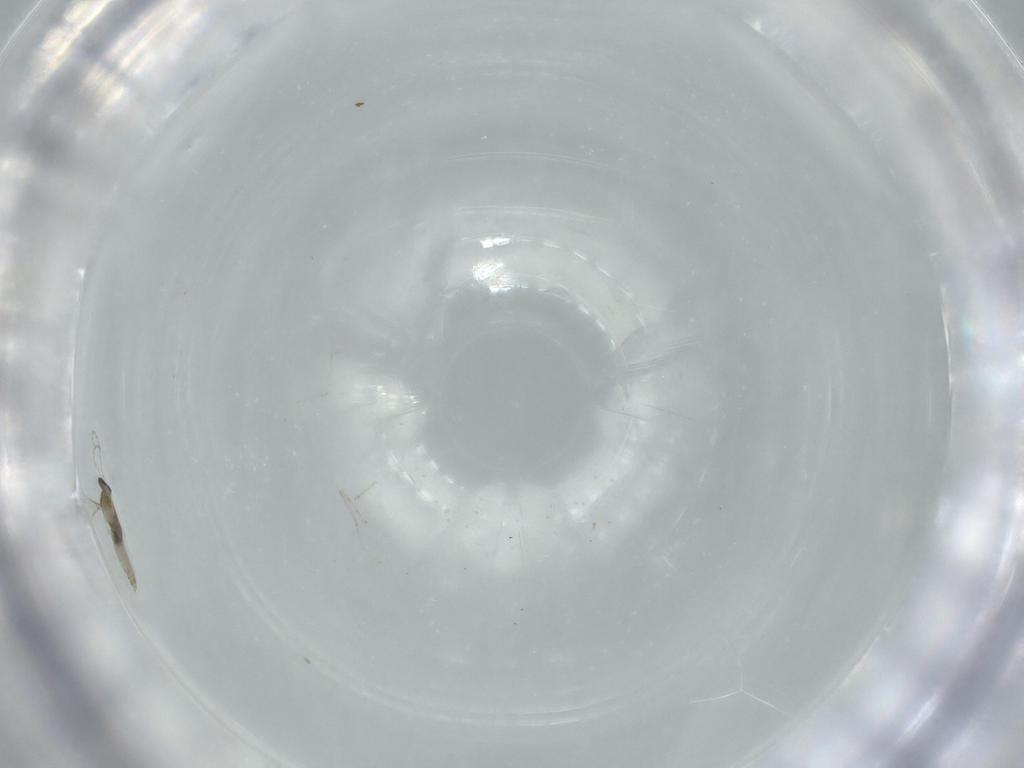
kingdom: Animalia
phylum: Arthropoda
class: Insecta
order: Diptera
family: Cecidomyiidae
